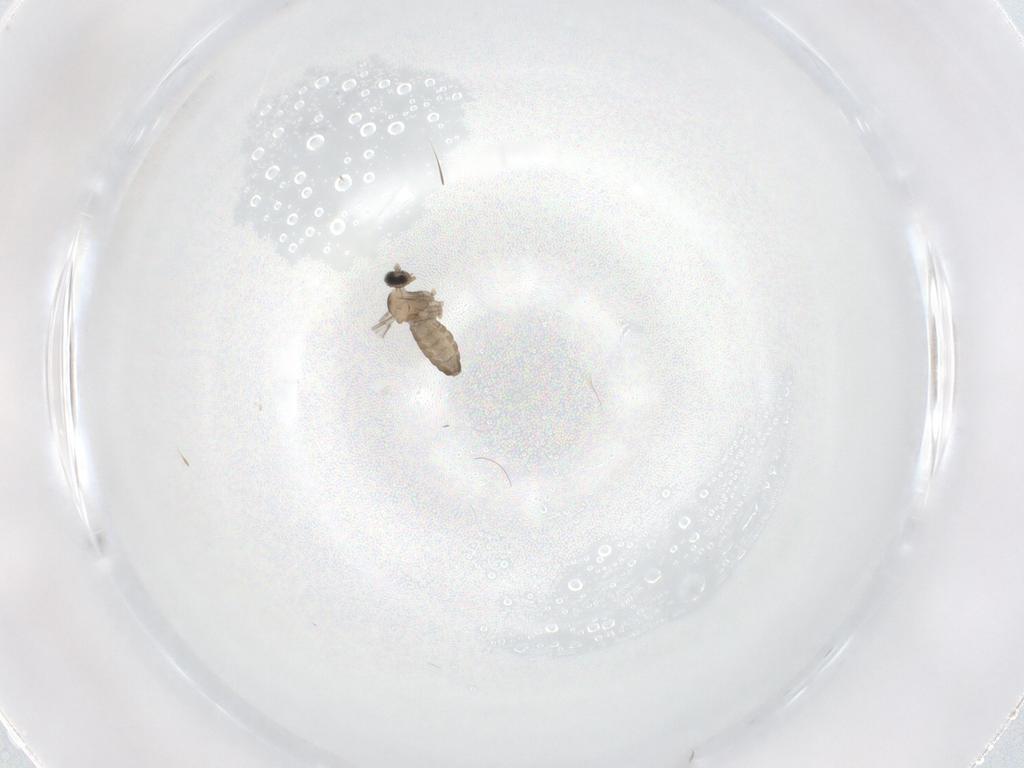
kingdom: Animalia
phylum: Arthropoda
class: Insecta
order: Diptera
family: Cecidomyiidae
